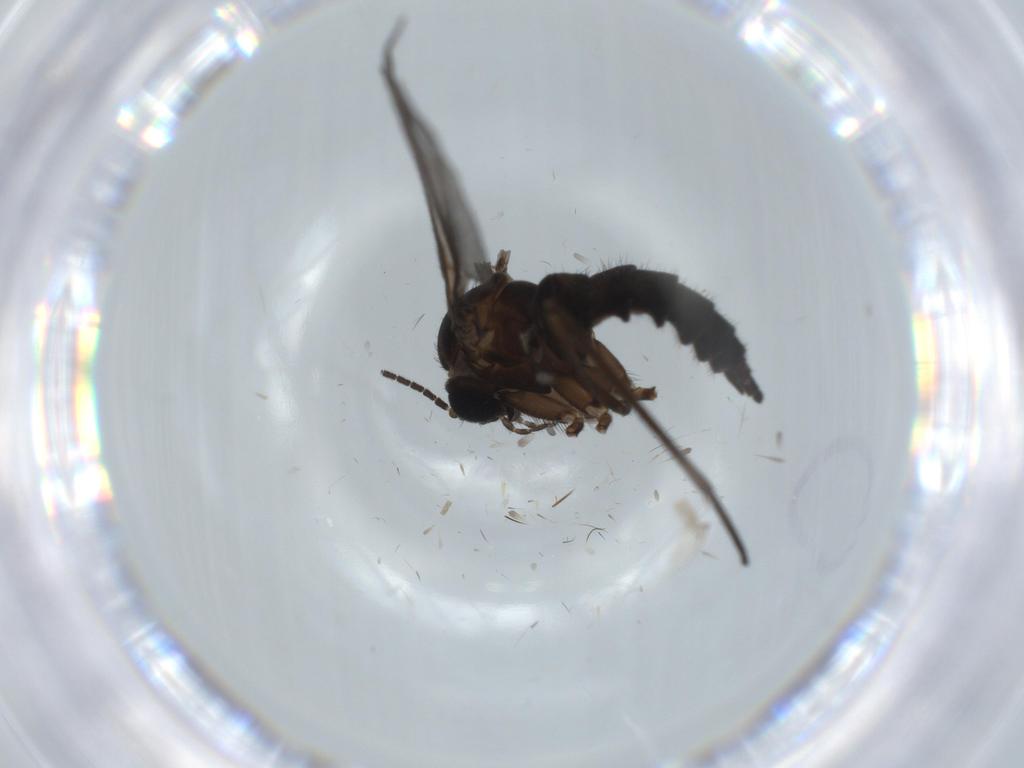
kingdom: Animalia
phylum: Arthropoda
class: Insecta
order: Diptera
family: Sciaridae
